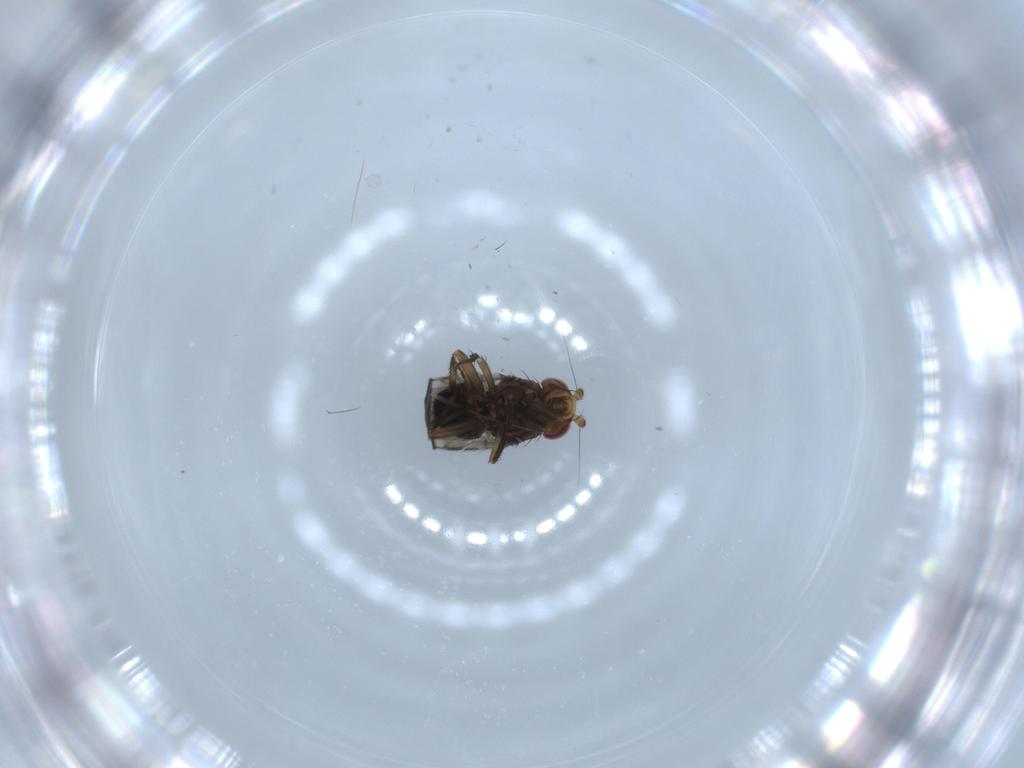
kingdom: Animalia
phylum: Arthropoda
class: Insecta
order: Diptera
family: Sphaeroceridae
